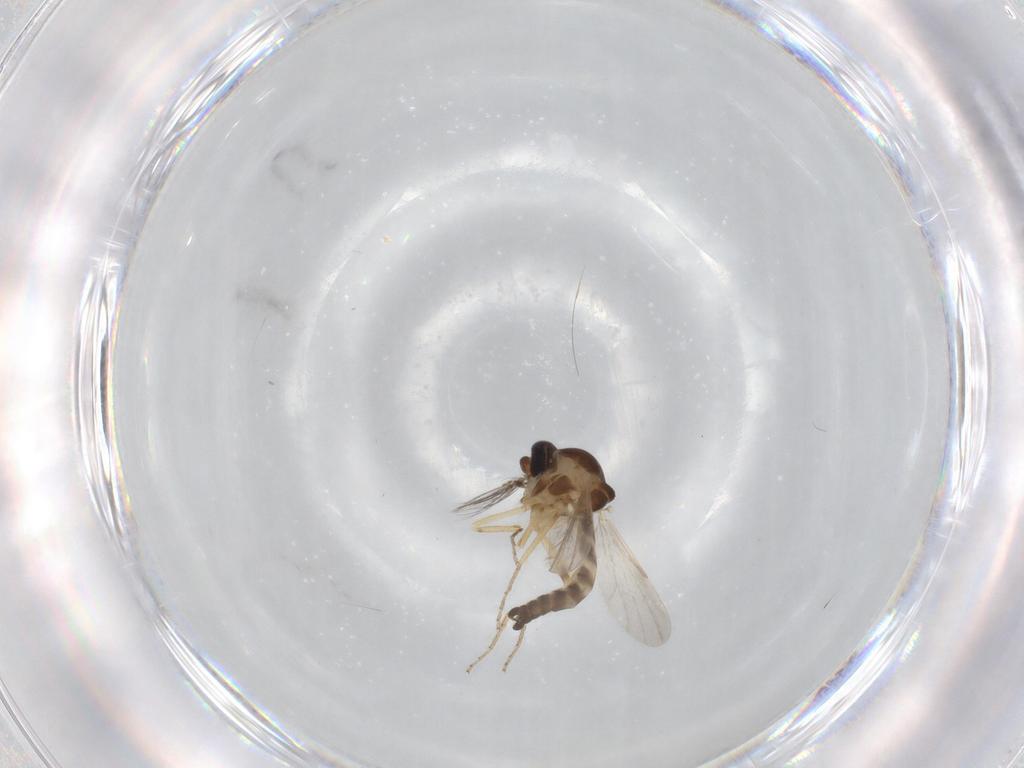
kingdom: Animalia
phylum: Arthropoda
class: Insecta
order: Diptera
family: Ceratopogonidae
